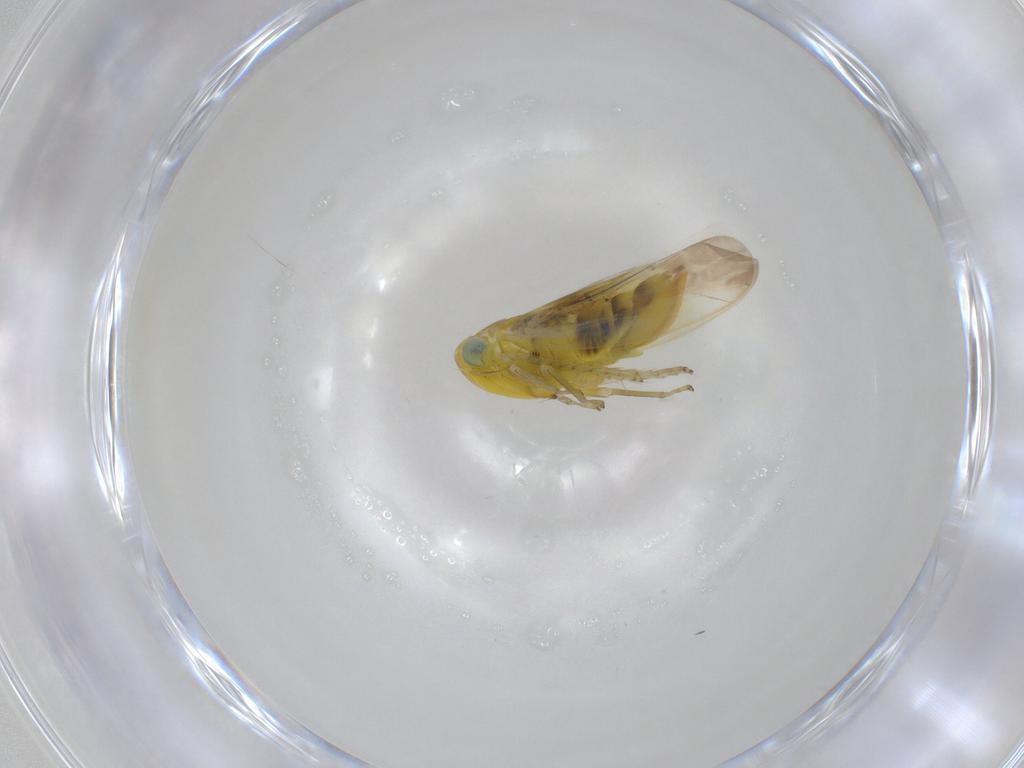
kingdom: Animalia
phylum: Arthropoda
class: Insecta
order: Hemiptera
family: Cicadellidae
